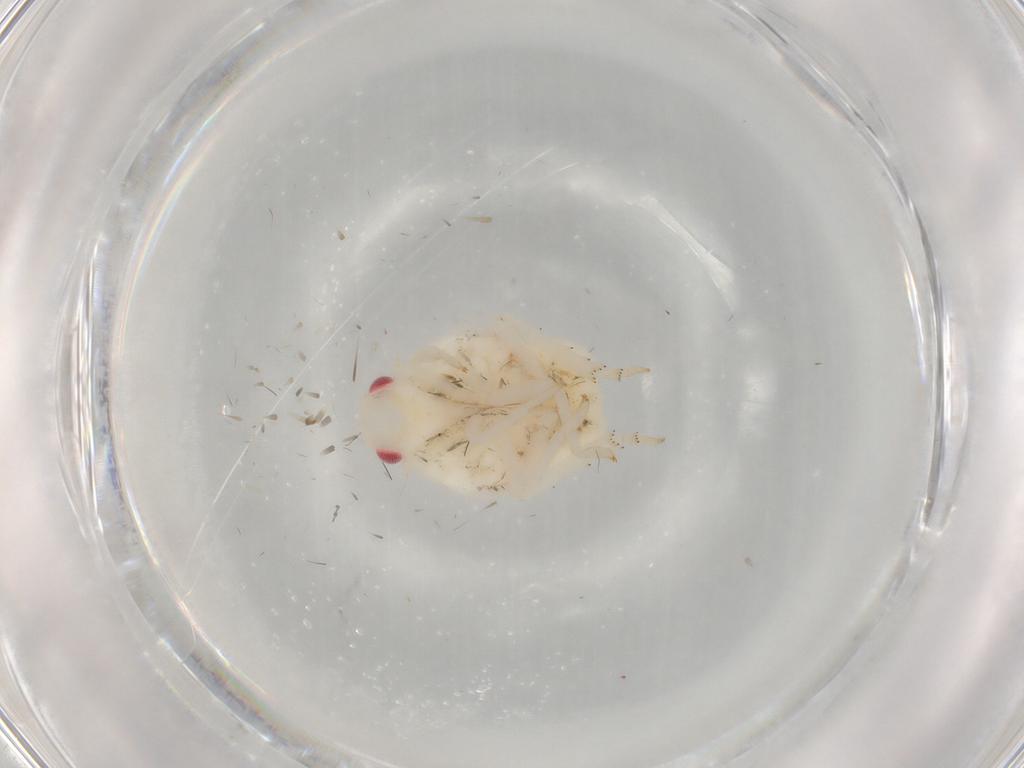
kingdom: Animalia
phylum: Arthropoda
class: Insecta
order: Hemiptera
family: Flatidae
